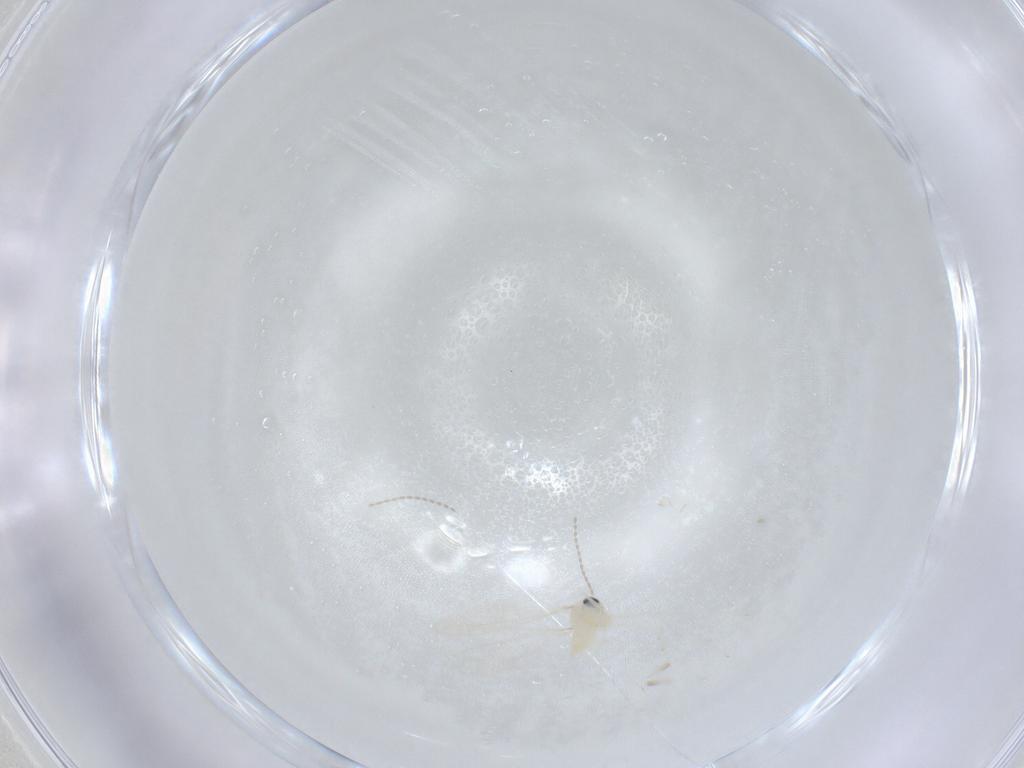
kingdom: Animalia
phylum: Arthropoda
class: Insecta
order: Diptera
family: Cecidomyiidae
